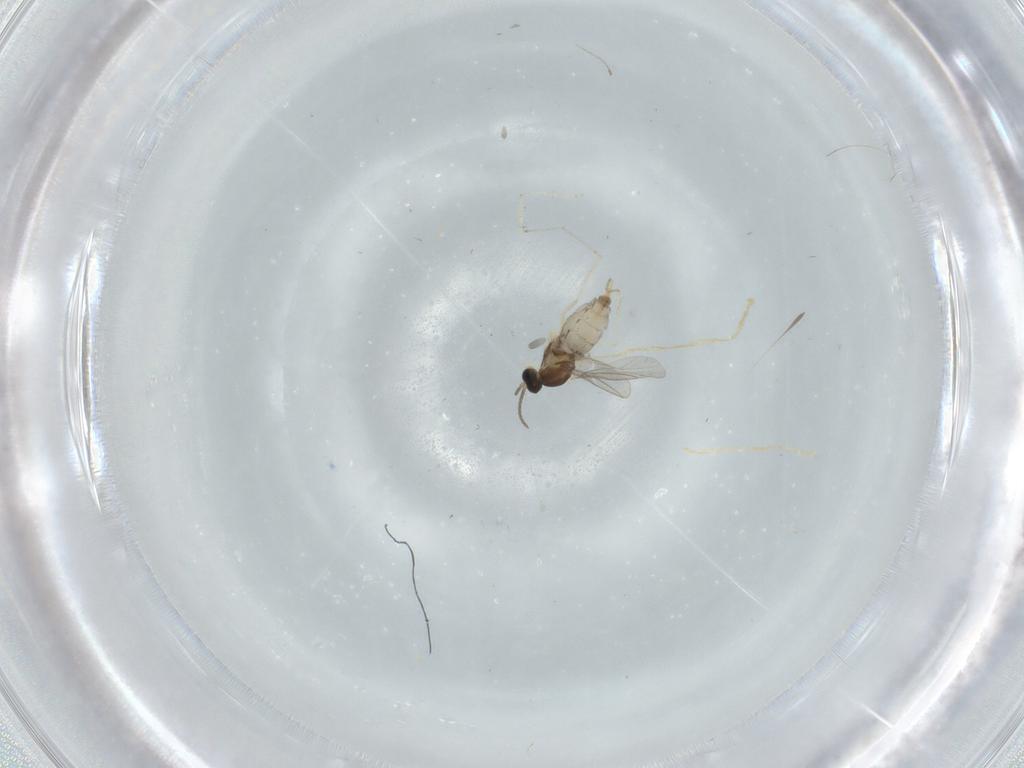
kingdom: Animalia
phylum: Arthropoda
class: Insecta
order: Diptera
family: Cecidomyiidae
